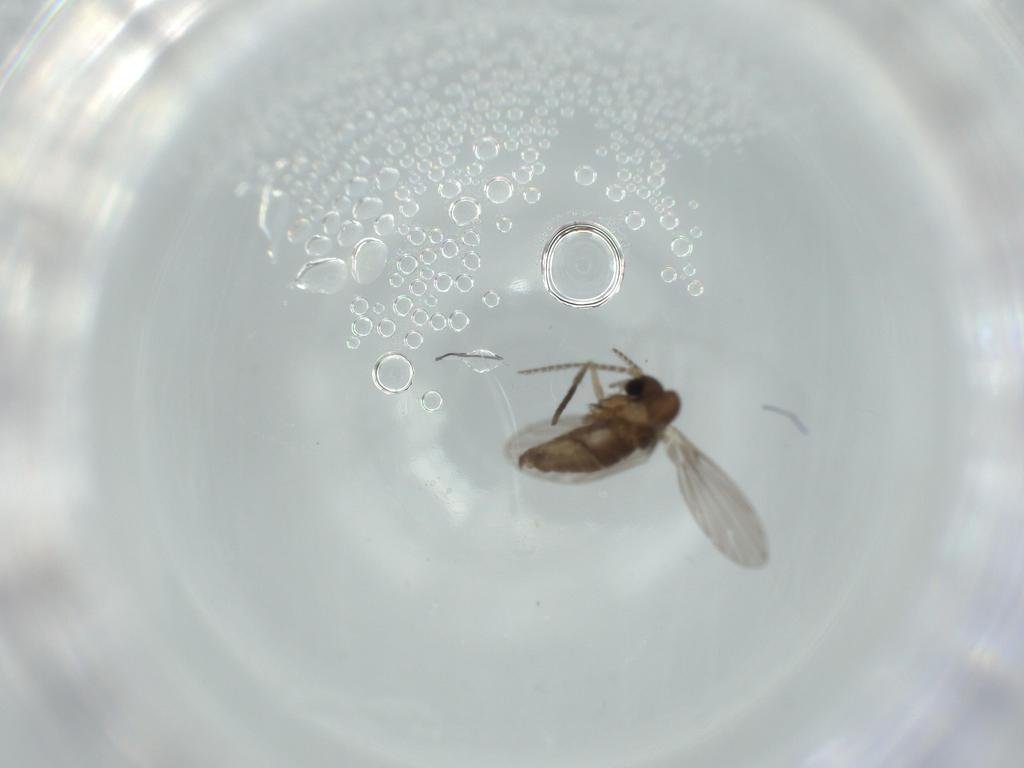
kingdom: Animalia
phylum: Arthropoda
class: Insecta
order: Diptera
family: Psychodidae
